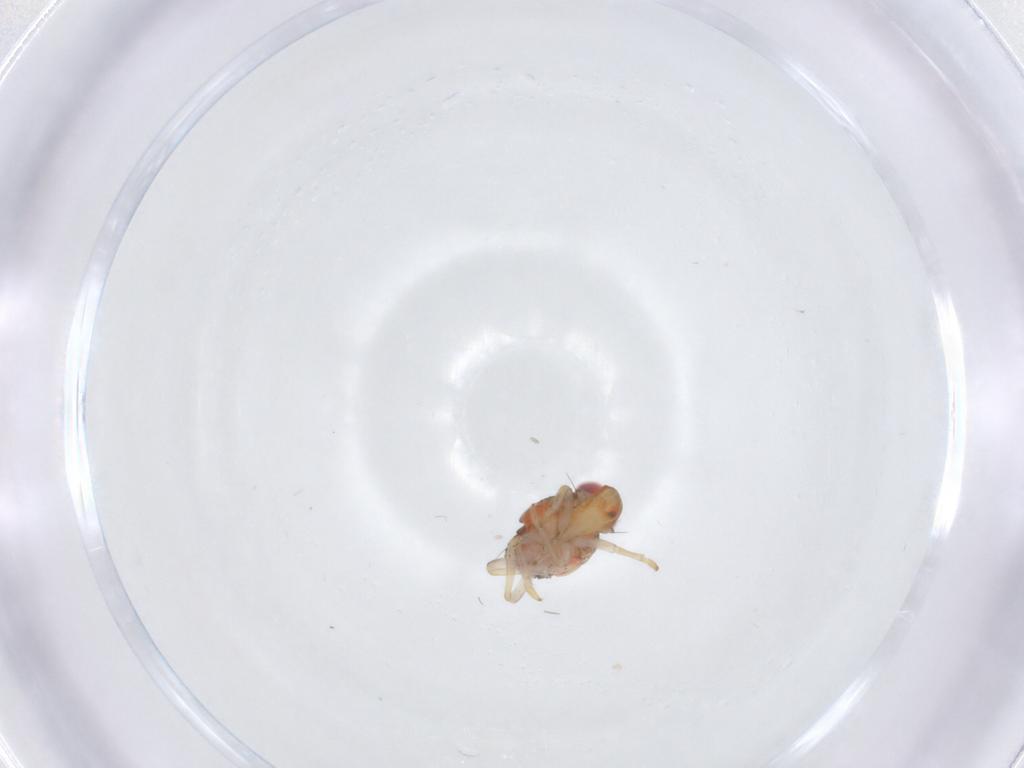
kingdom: Animalia
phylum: Arthropoda
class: Insecta
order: Hemiptera
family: Issidae
